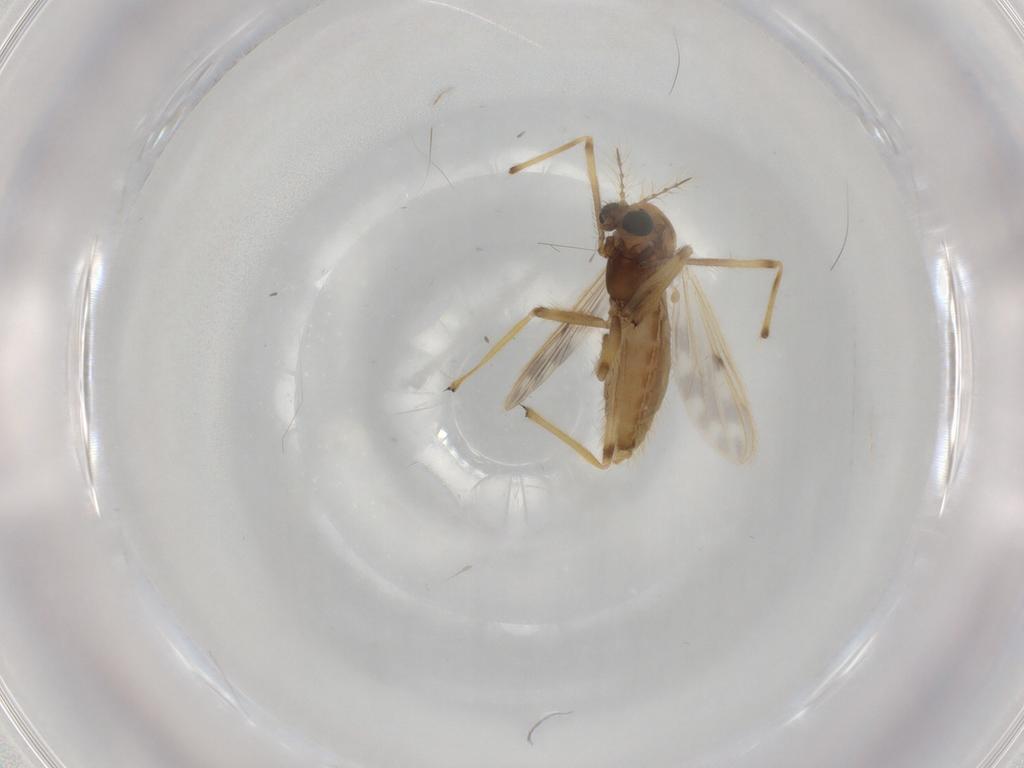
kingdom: Animalia
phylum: Arthropoda
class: Insecta
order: Diptera
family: Chironomidae
